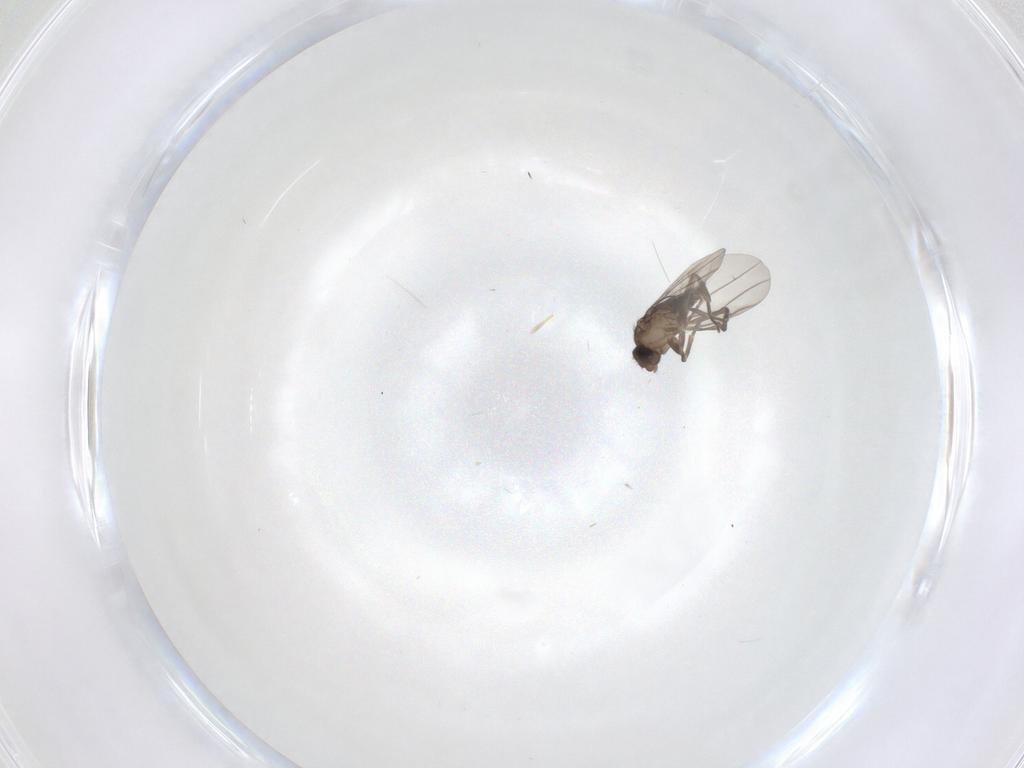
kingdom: Animalia
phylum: Arthropoda
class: Insecta
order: Diptera
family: Phoridae
